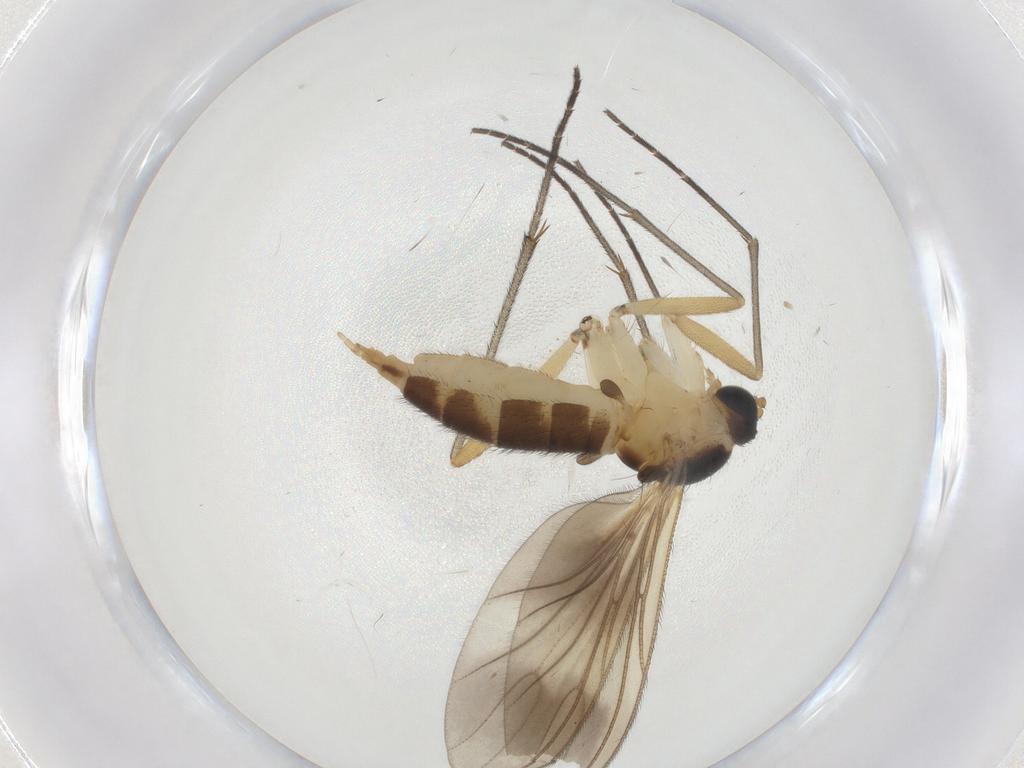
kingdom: Animalia
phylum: Arthropoda
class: Insecta
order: Diptera
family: Sciaridae
